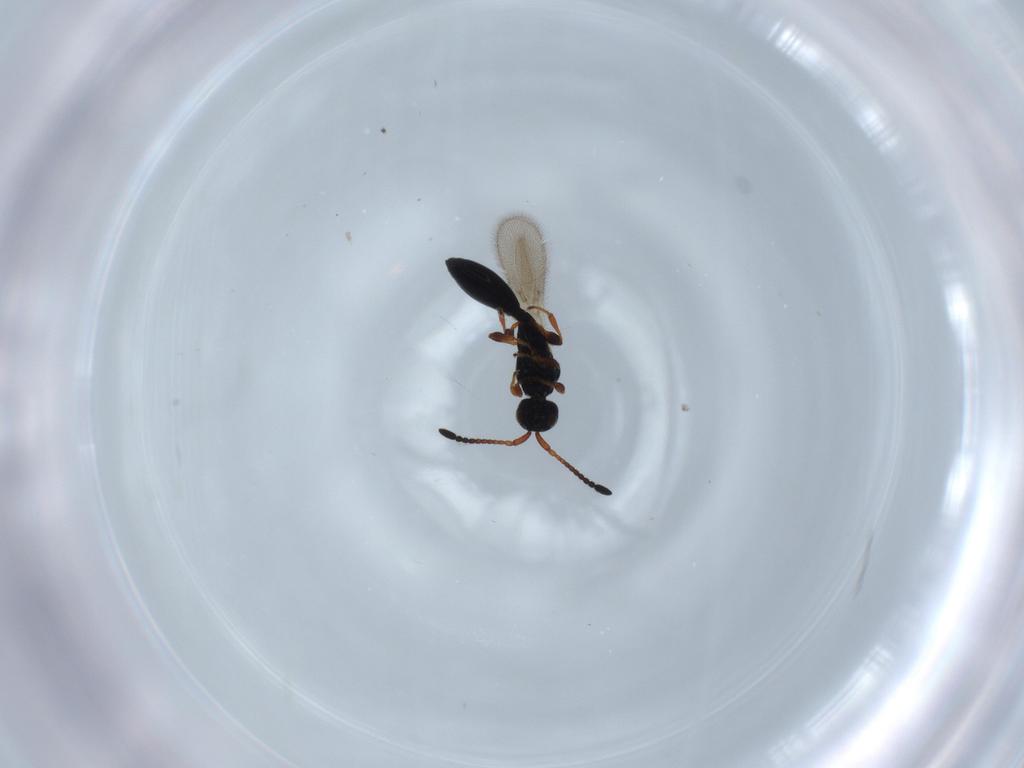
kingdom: Animalia
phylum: Arthropoda
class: Insecta
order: Hymenoptera
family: Diapriidae
